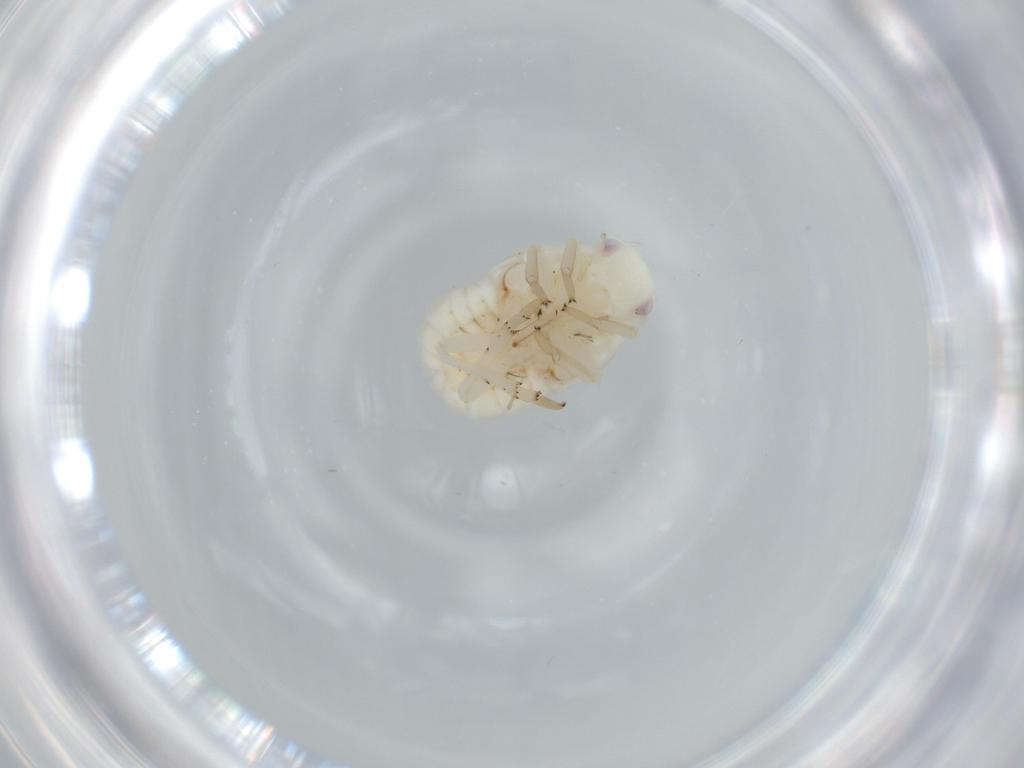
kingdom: Animalia
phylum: Arthropoda
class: Insecta
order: Hemiptera
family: Flatidae
